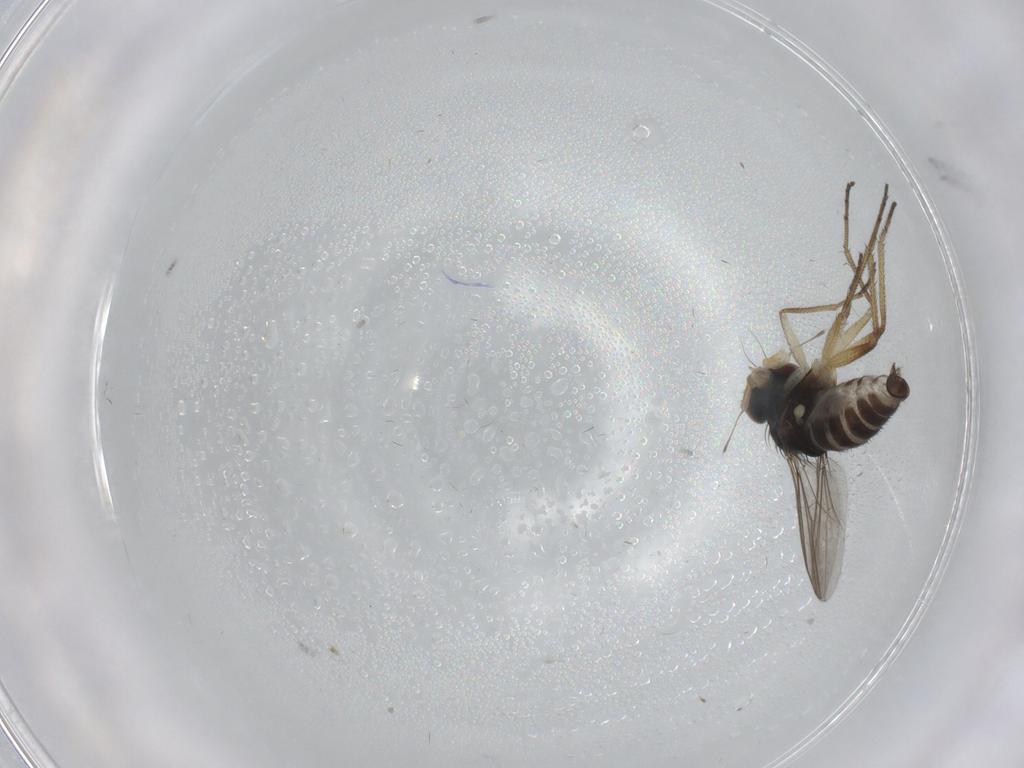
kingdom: Animalia
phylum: Arthropoda
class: Insecta
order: Diptera
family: Dolichopodidae
